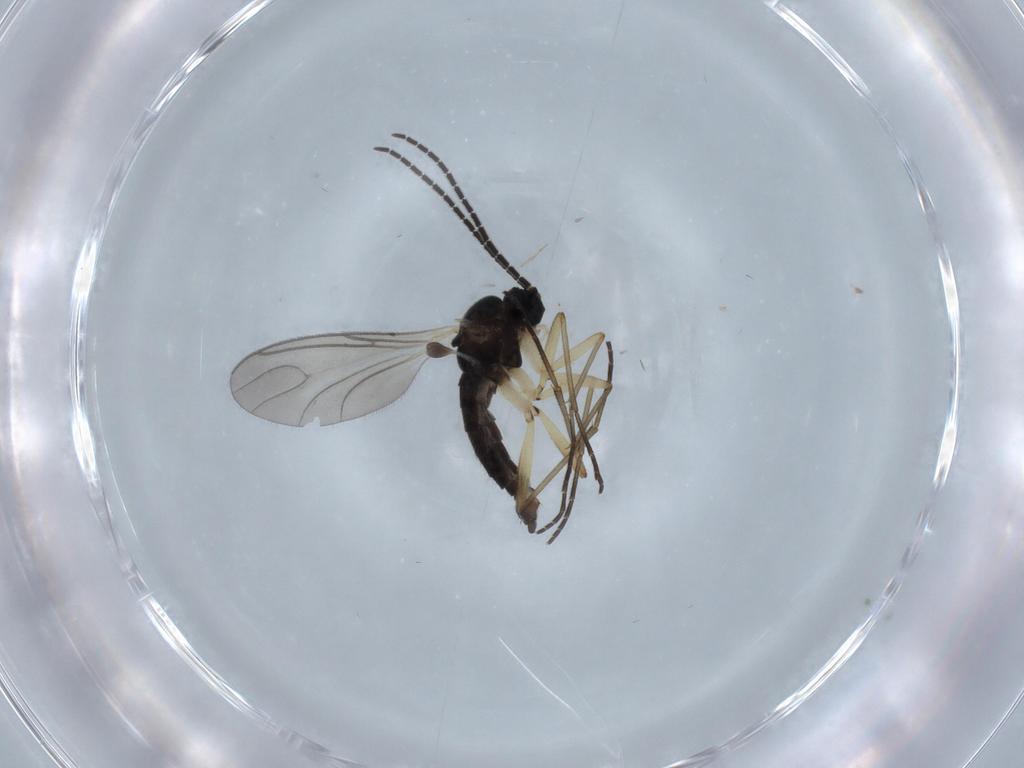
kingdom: Animalia
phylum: Arthropoda
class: Insecta
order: Diptera
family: Sciaridae
